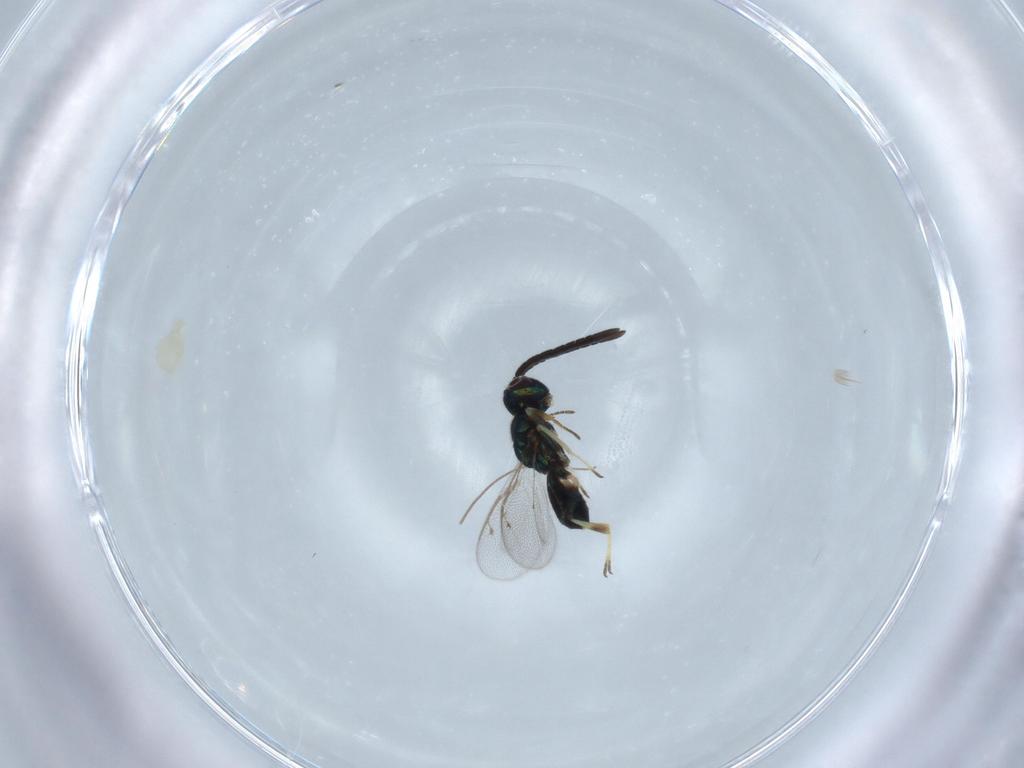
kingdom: Animalia
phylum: Arthropoda
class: Insecta
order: Hymenoptera
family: Eupelmidae
